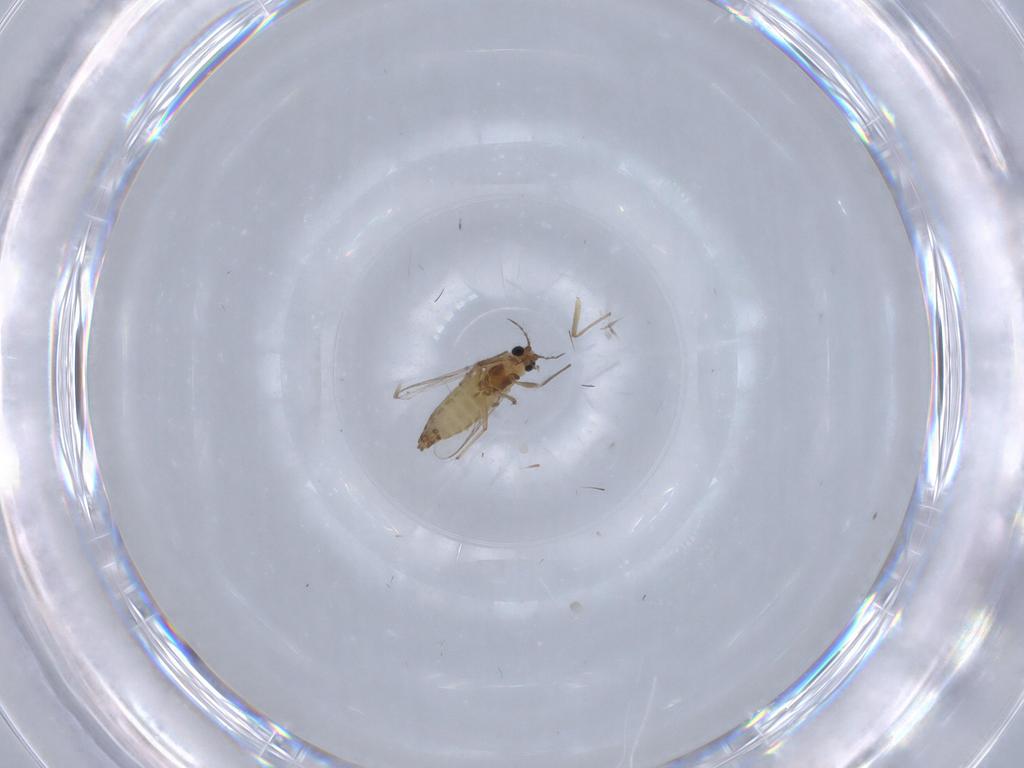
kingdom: Animalia
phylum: Arthropoda
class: Insecta
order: Diptera
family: Chironomidae
